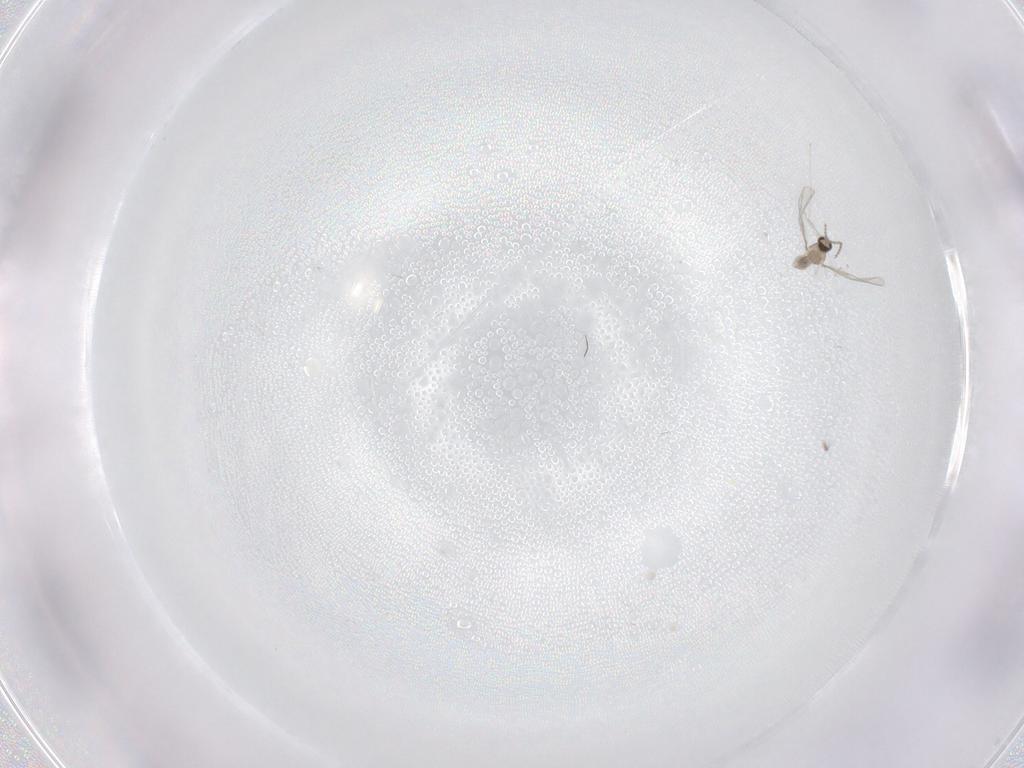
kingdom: Animalia
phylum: Arthropoda
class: Insecta
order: Diptera
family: Cecidomyiidae
